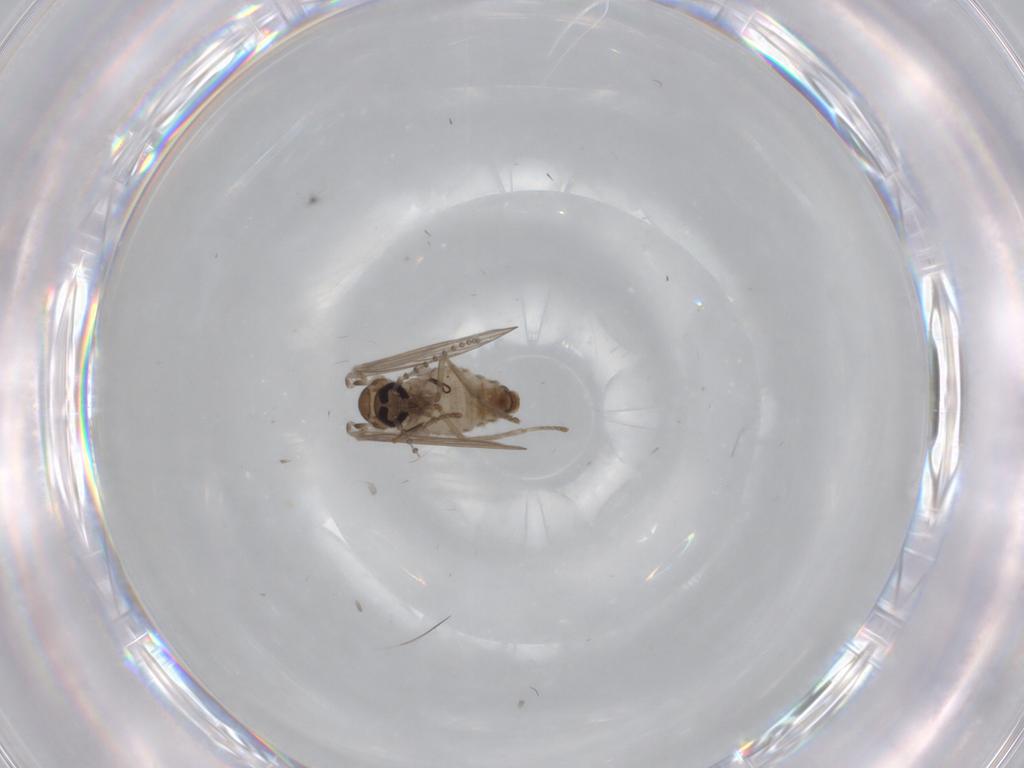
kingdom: Animalia
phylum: Arthropoda
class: Insecta
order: Diptera
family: Psychodidae
